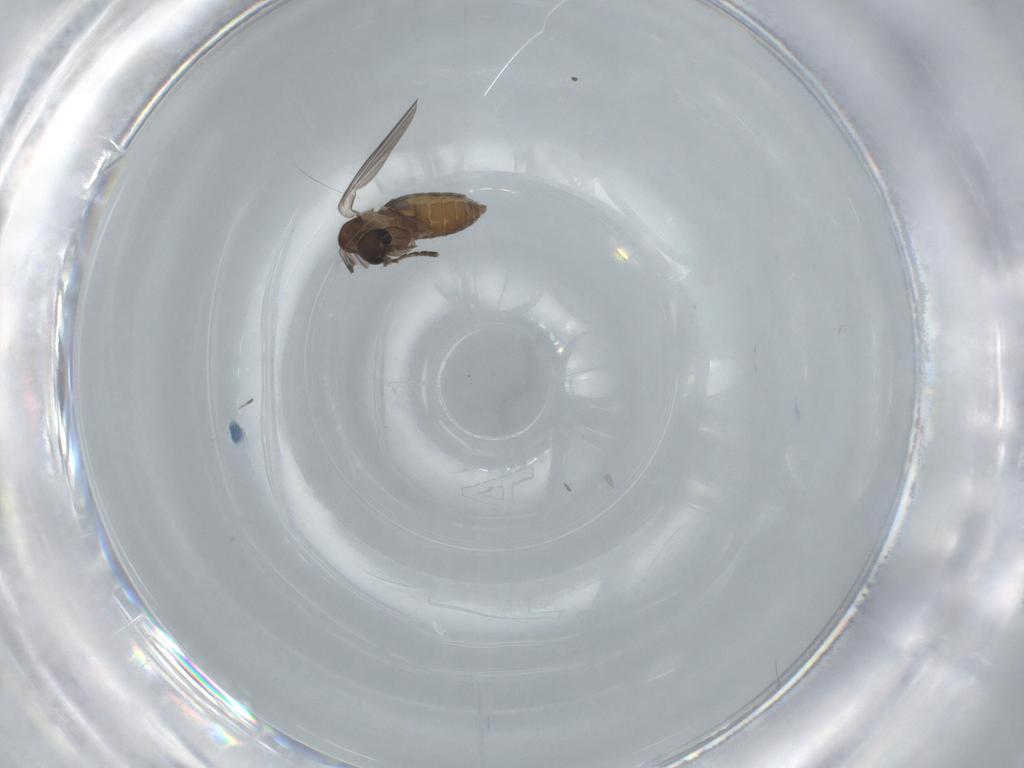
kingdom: Animalia
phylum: Arthropoda
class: Insecta
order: Diptera
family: Psychodidae
